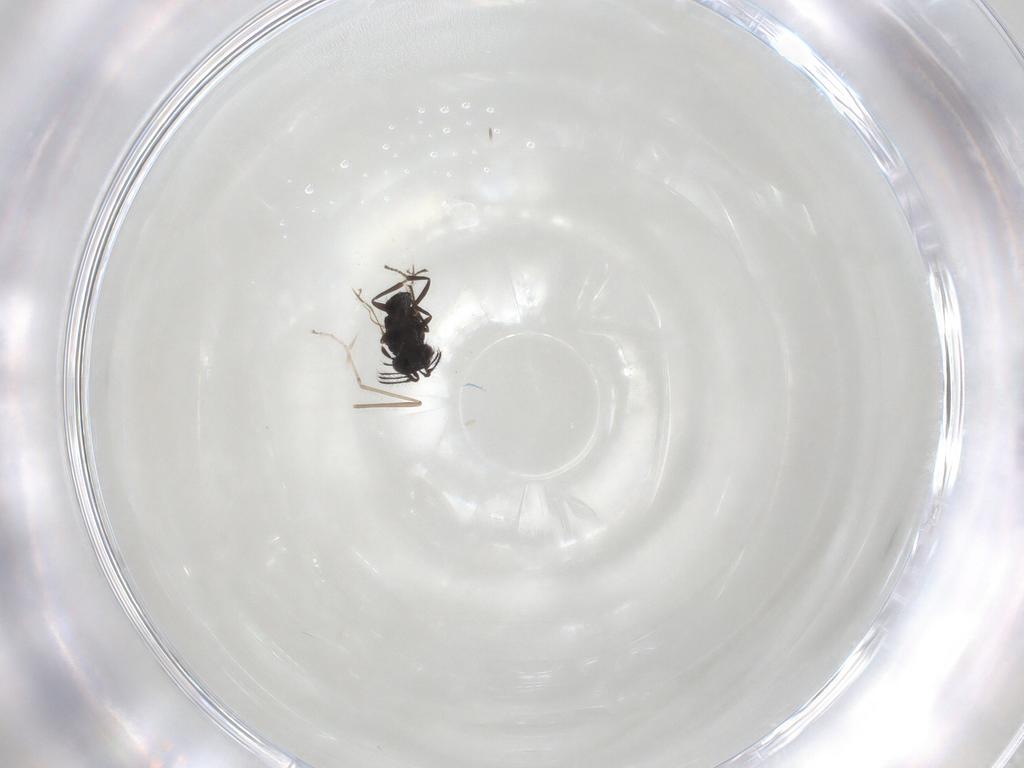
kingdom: Animalia
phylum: Arthropoda
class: Insecta
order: Hymenoptera
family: Encyrtidae
